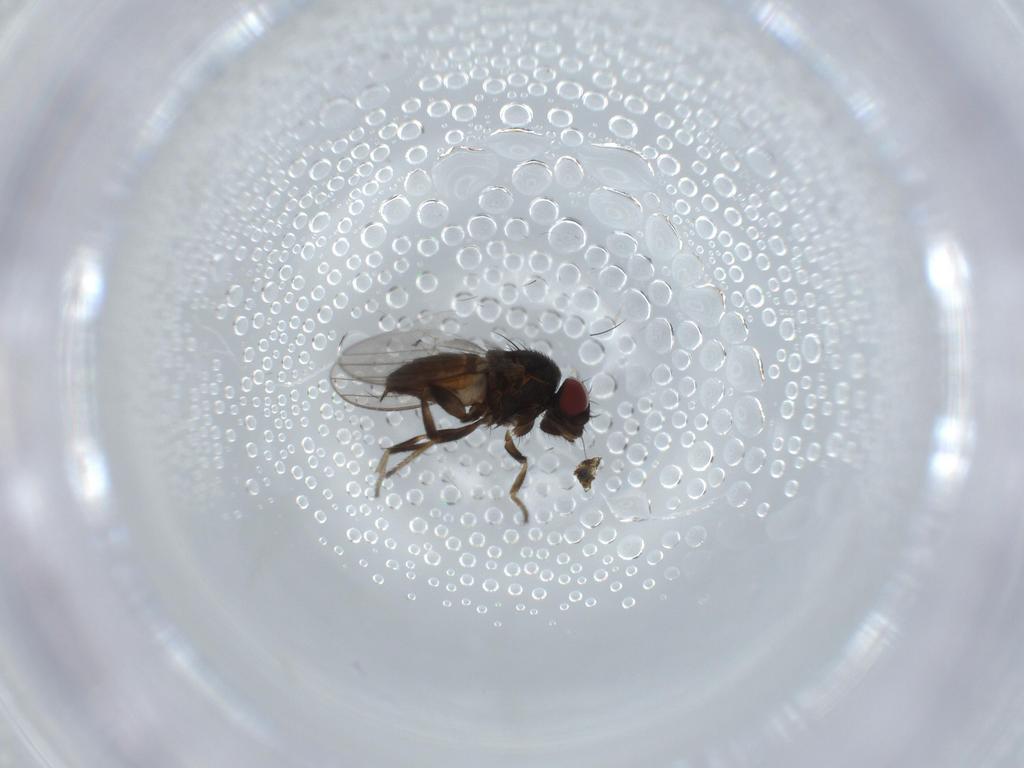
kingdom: Animalia
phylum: Arthropoda
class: Insecta
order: Diptera
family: Milichiidae
